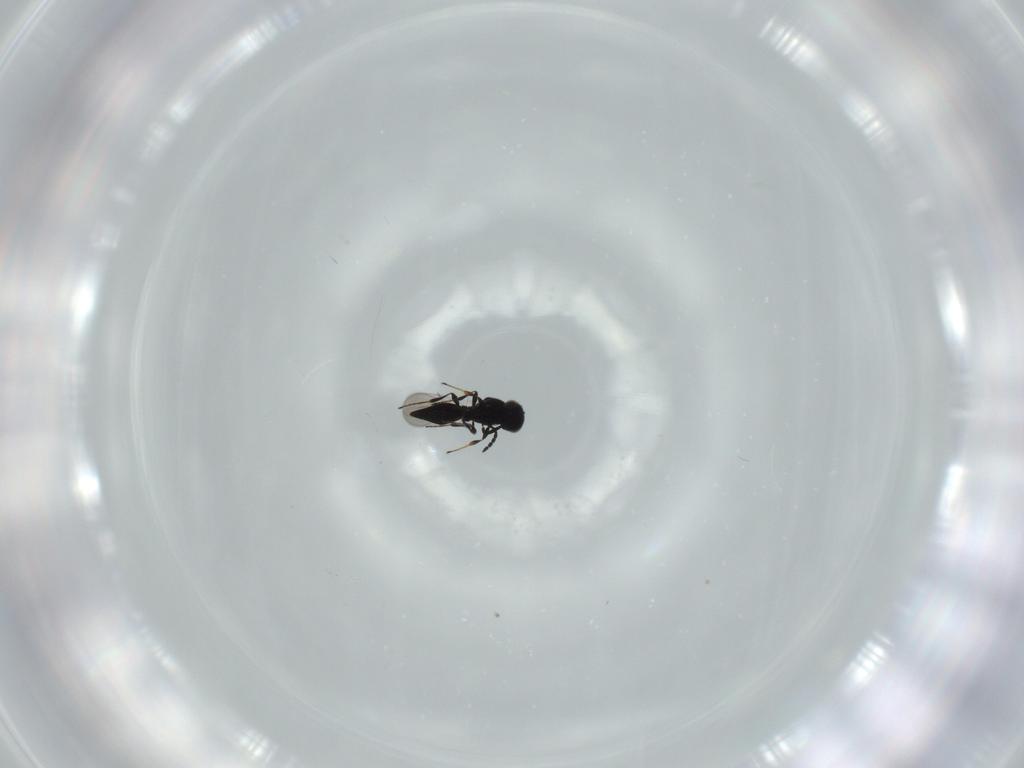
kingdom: Animalia
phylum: Arthropoda
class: Insecta
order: Diptera
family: Mythicomyiidae
